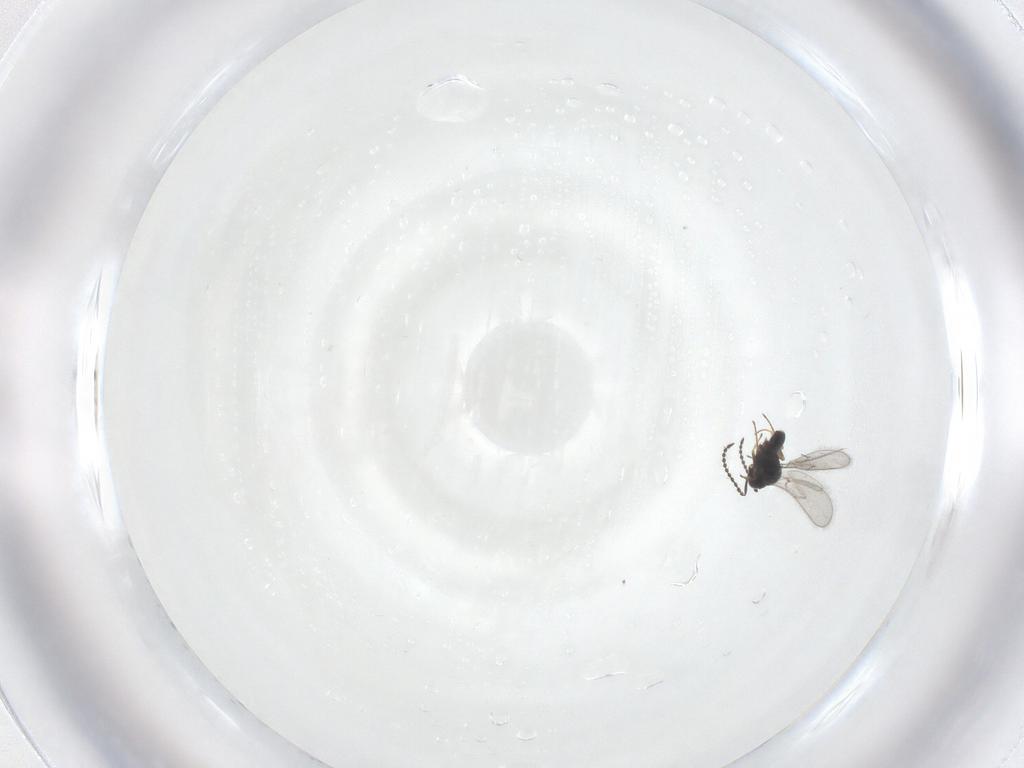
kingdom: Animalia
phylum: Arthropoda
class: Insecta
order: Hymenoptera
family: Scelionidae
